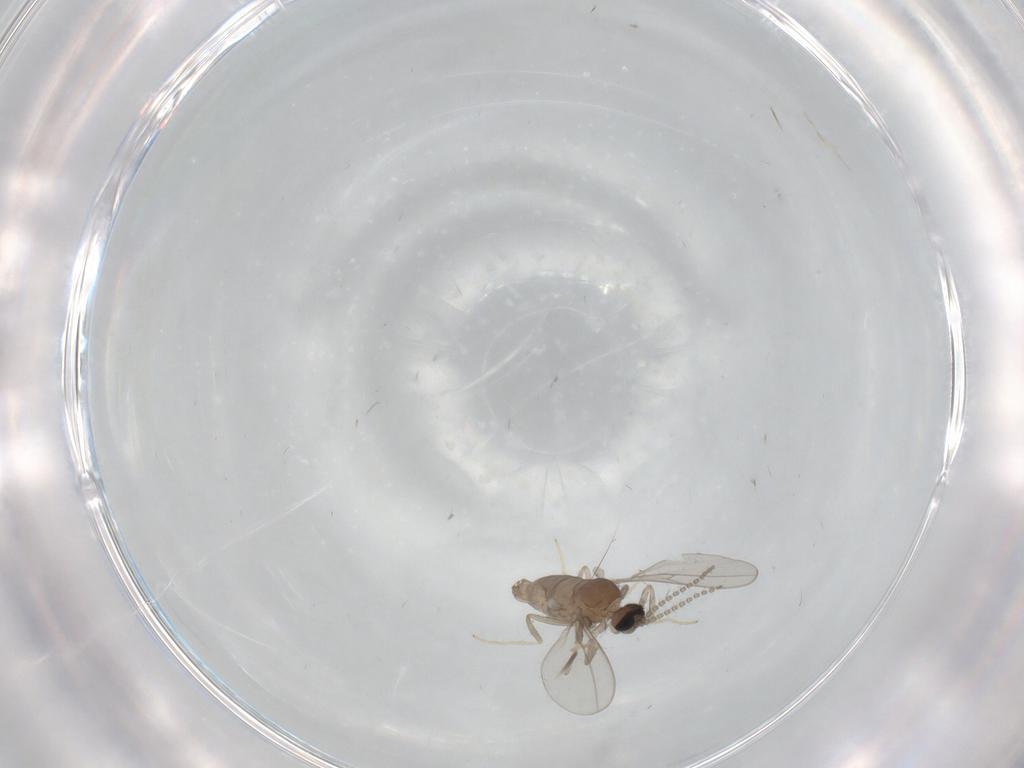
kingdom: Animalia
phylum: Arthropoda
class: Insecta
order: Diptera
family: Cecidomyiidae
